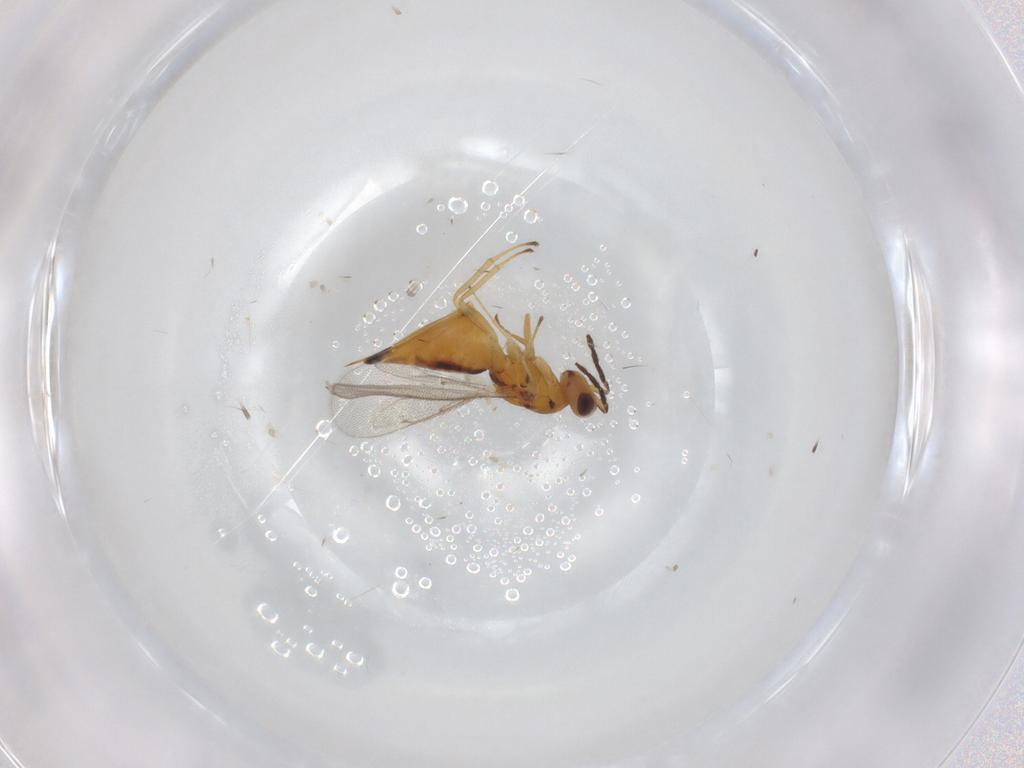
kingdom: Animalia
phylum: Arthropoda
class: Insecta
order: Hymenoptera
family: Eulophidae
